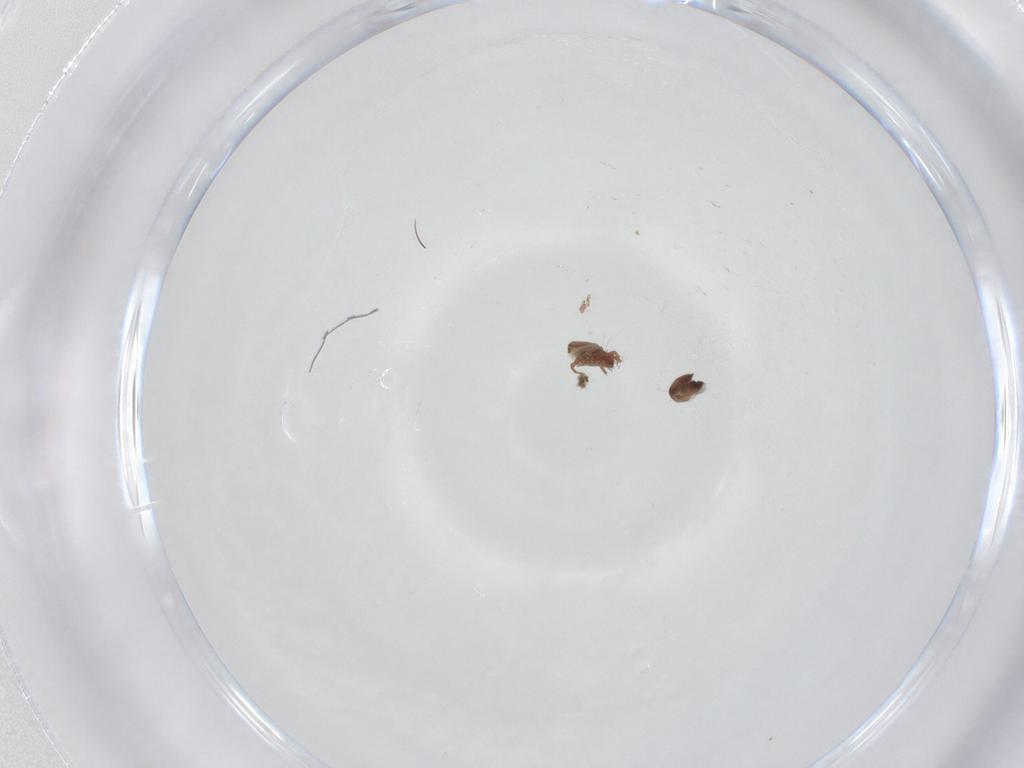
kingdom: Animalia
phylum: Arthropoda
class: Arachnida
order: Sarcoptiformes
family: Ceratozetidae
